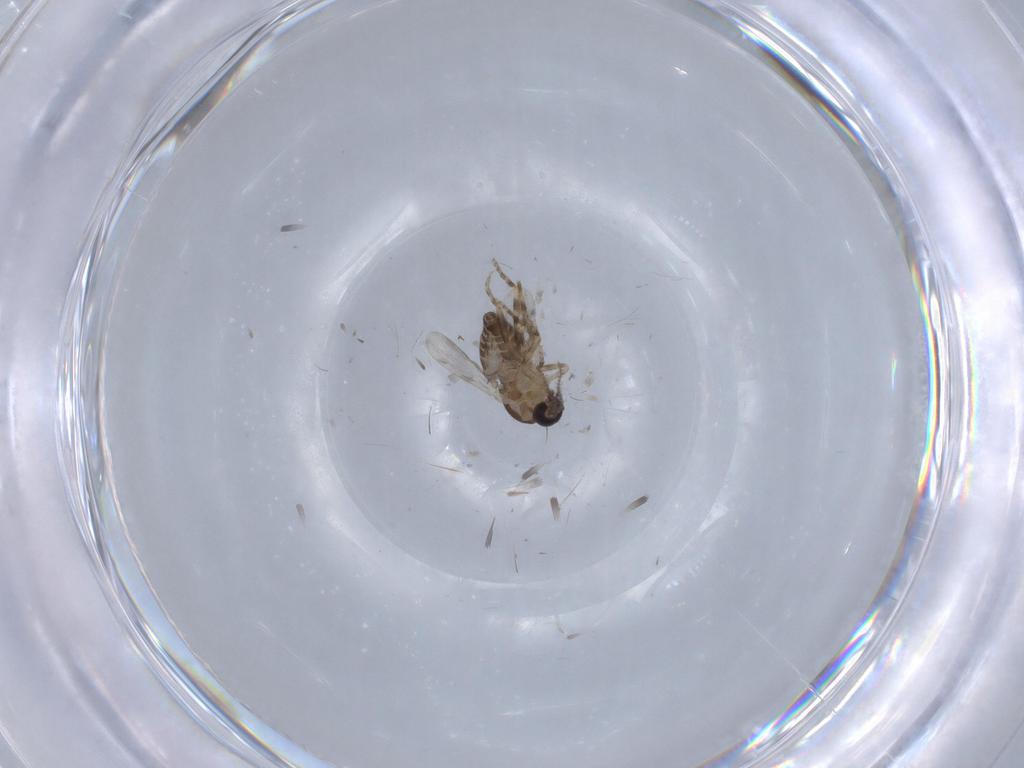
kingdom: Animalia
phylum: Arthropoda
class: Insecta
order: Diptera
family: Ceratopogonidae
